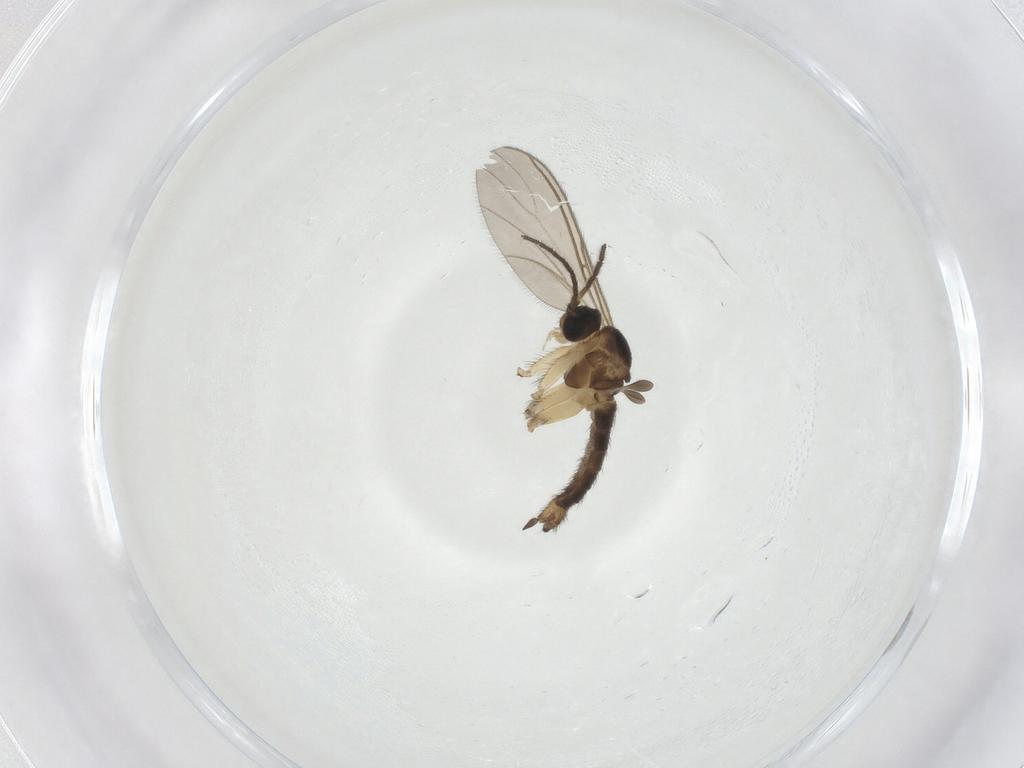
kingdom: Animalia
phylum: Arthropoda
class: Insecta
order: Diptera
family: Sciaridae
